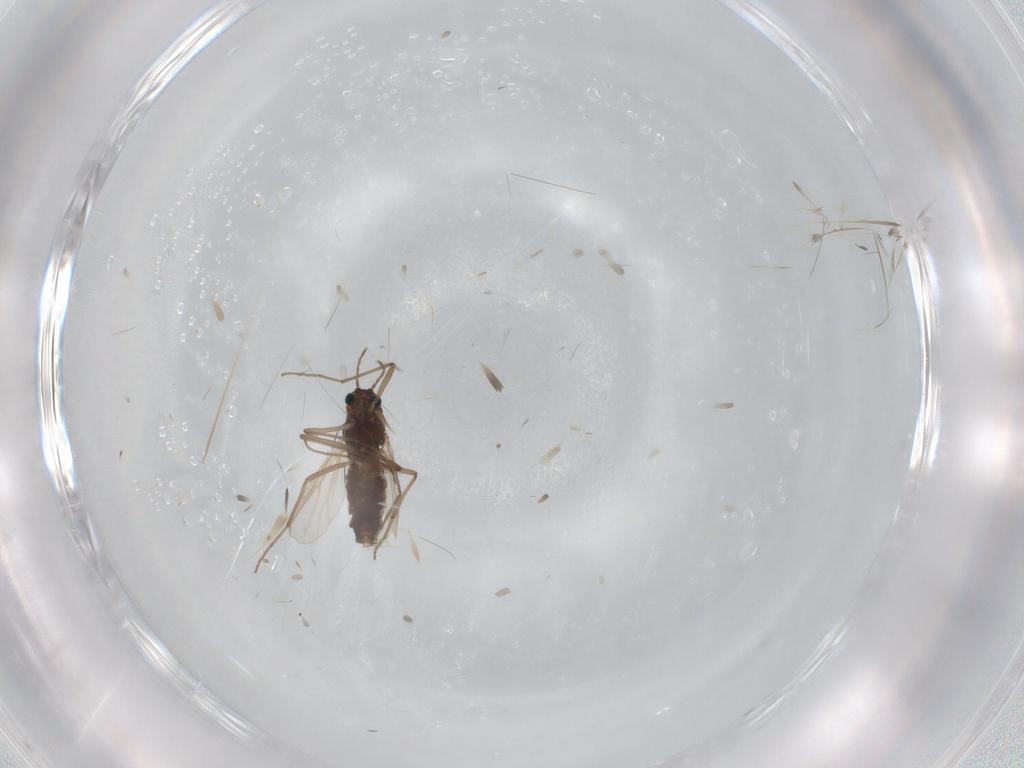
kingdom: Animalia
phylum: Arthropoda
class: Insecta
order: Diptera
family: Chironomidae
